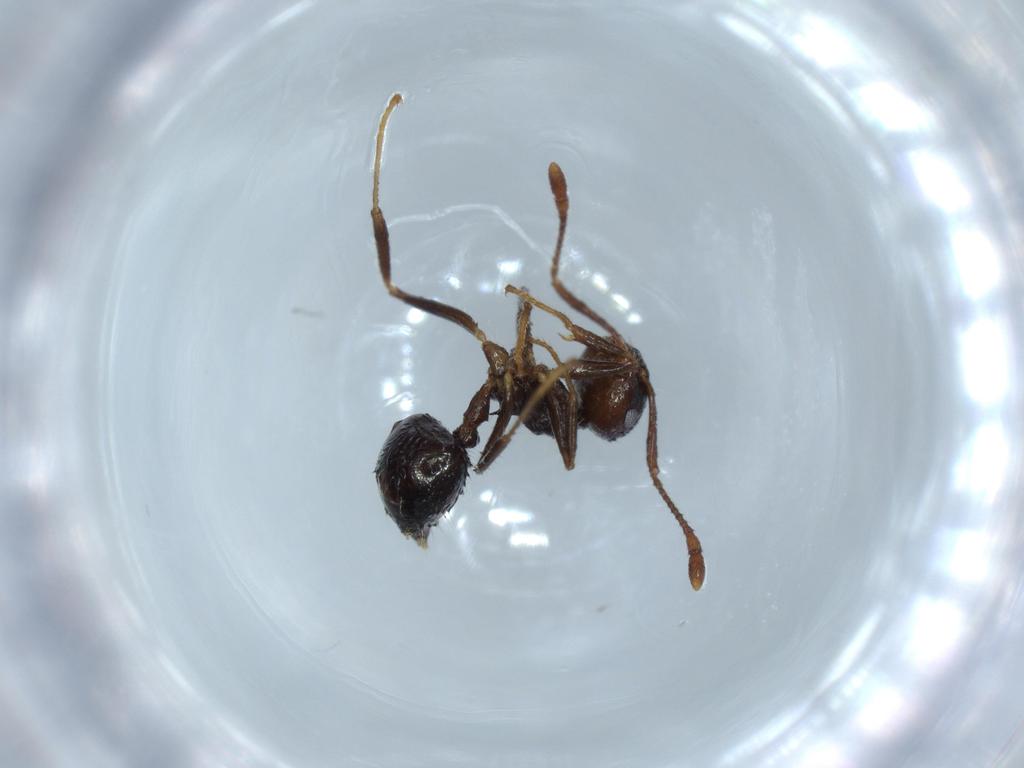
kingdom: Animalia
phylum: Arthropoda
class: Insecta
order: Hymenoptera
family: Formicidae
